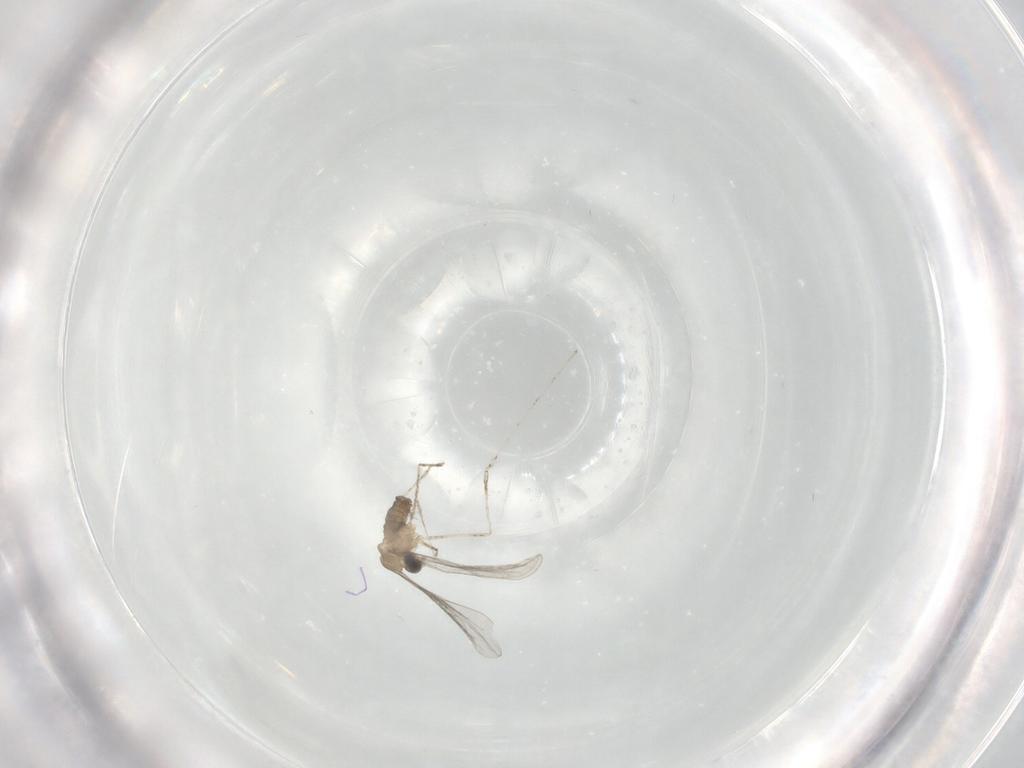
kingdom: Animalia
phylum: Arthropoda
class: Insecta
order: Diptera
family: Cecidomyiidae
